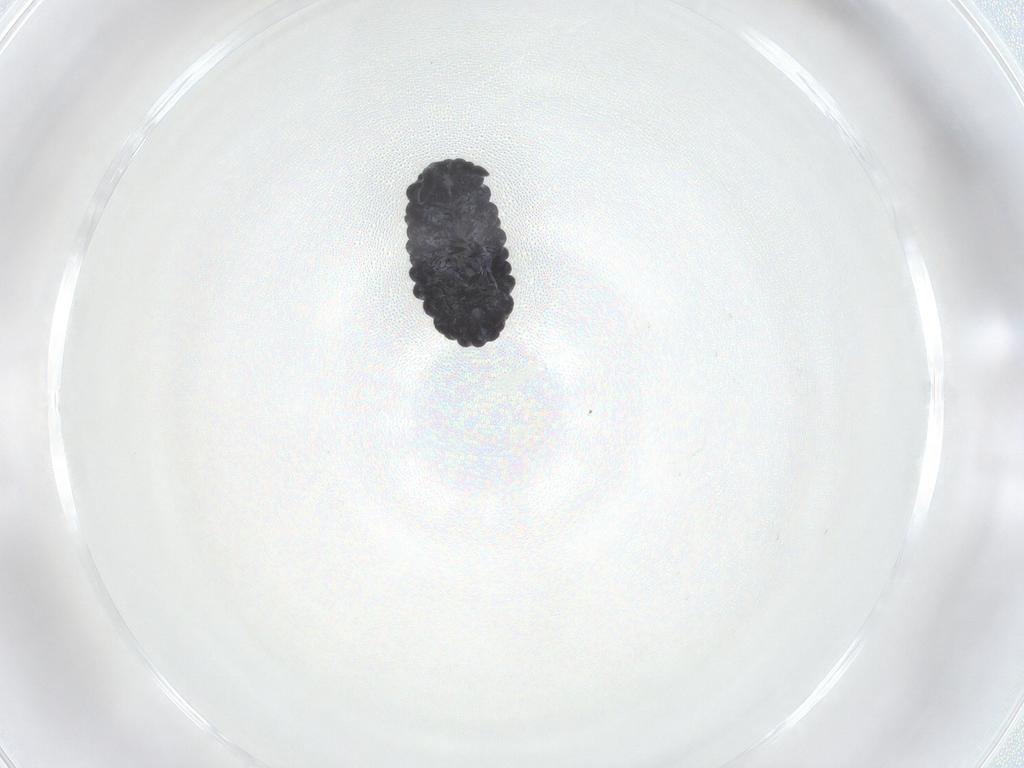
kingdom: Animalia
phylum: Arthropoda
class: Collembola
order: Poduromorpha
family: Neanuridae
